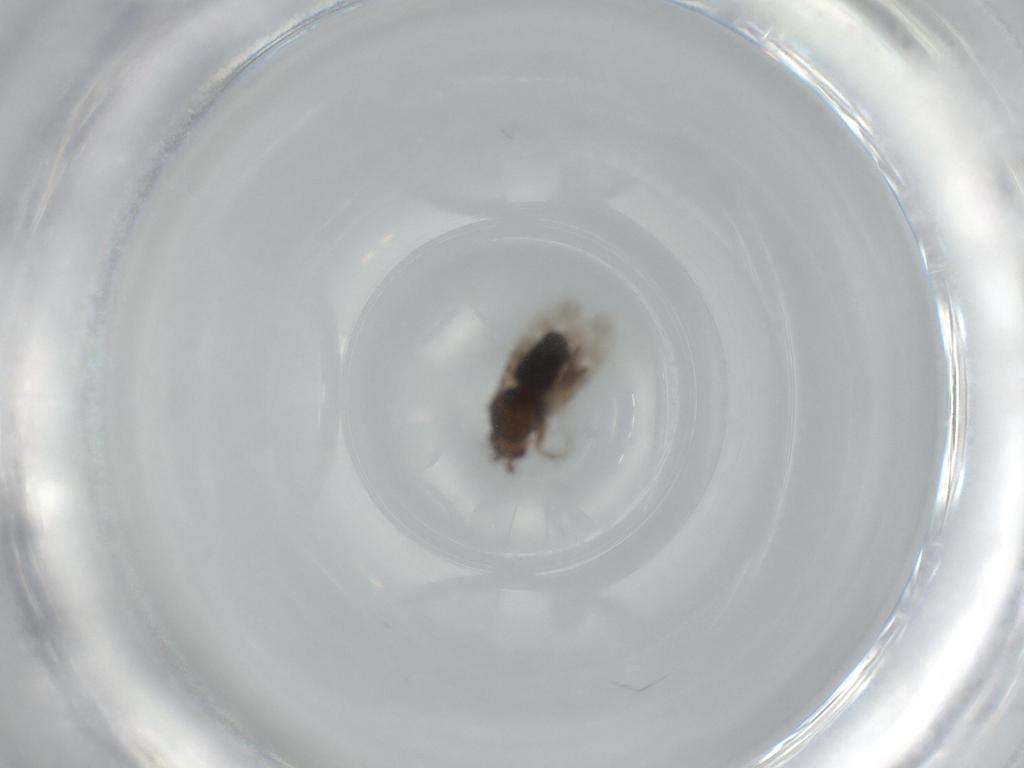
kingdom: Animalia
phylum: Arthropoda
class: Insecta
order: Diptera
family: Sphaeroceridae
